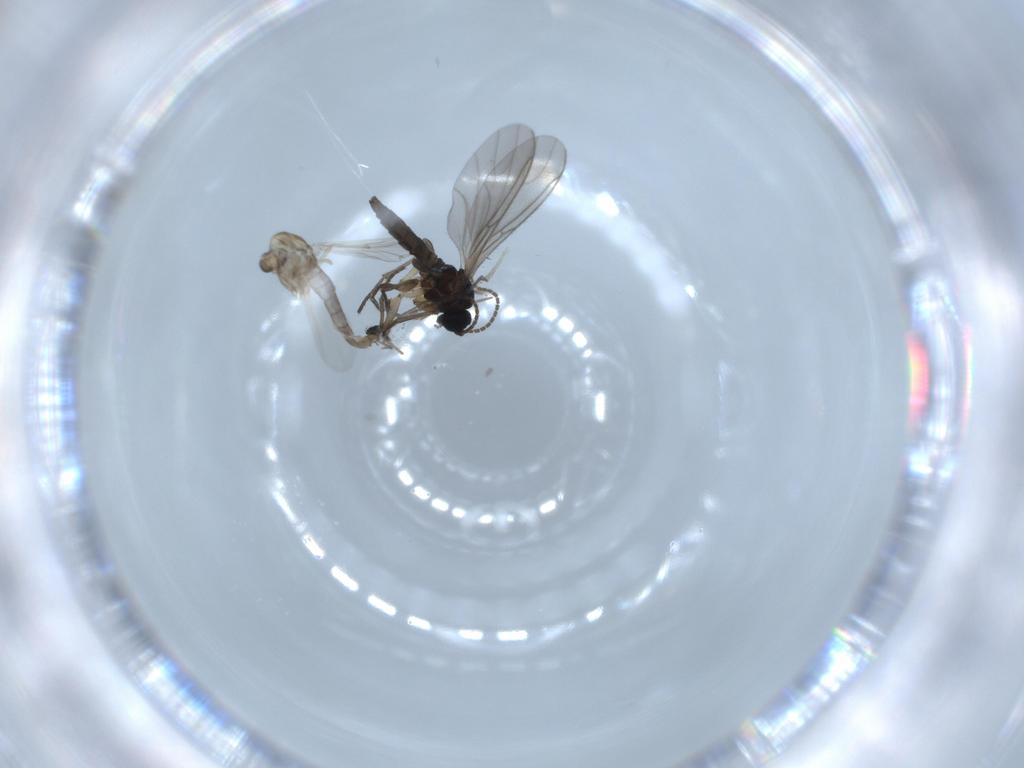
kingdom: Animalia
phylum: Arthropoda
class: Insecta
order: Diptera
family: Sciaridae
